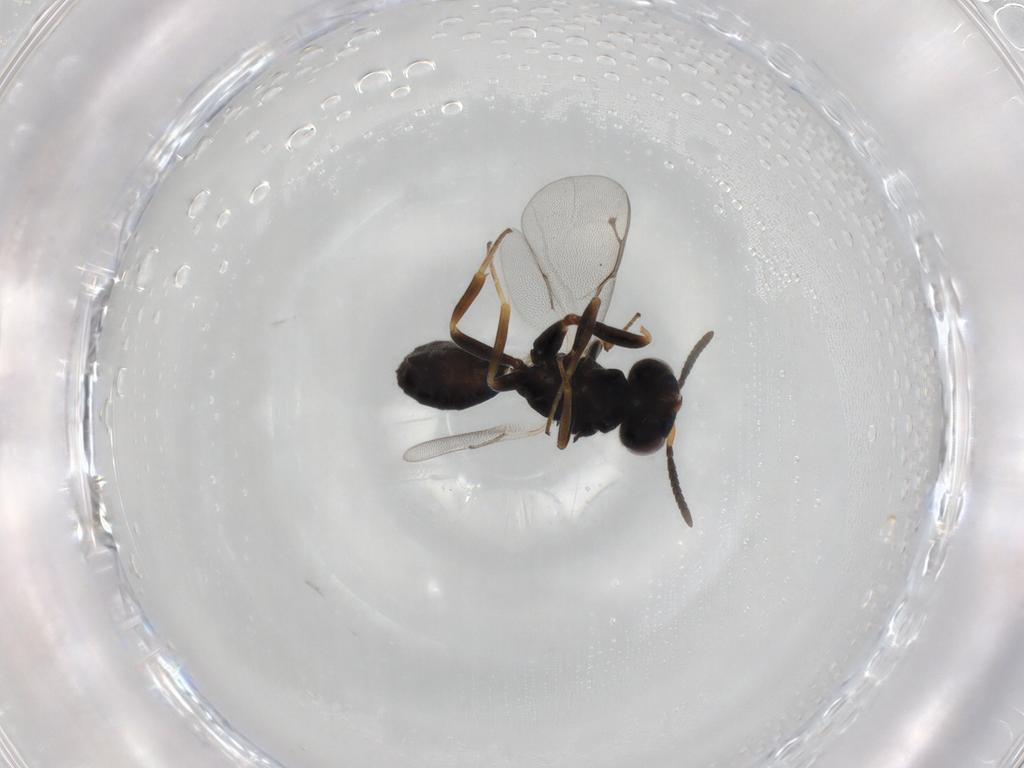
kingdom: Animalia
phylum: Arthropoda
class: Insecta
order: Hymenoptera
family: Pteromalidae
